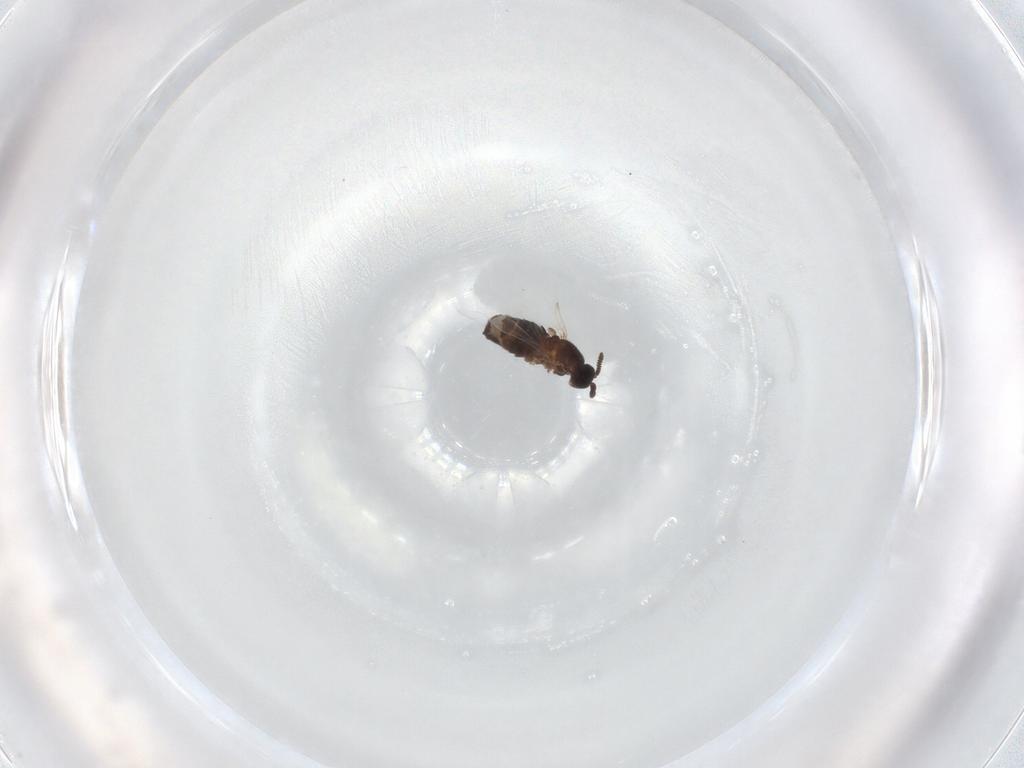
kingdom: Animalia
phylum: Arthropoda
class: Insecta
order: Diptera
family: Scatopsidae
